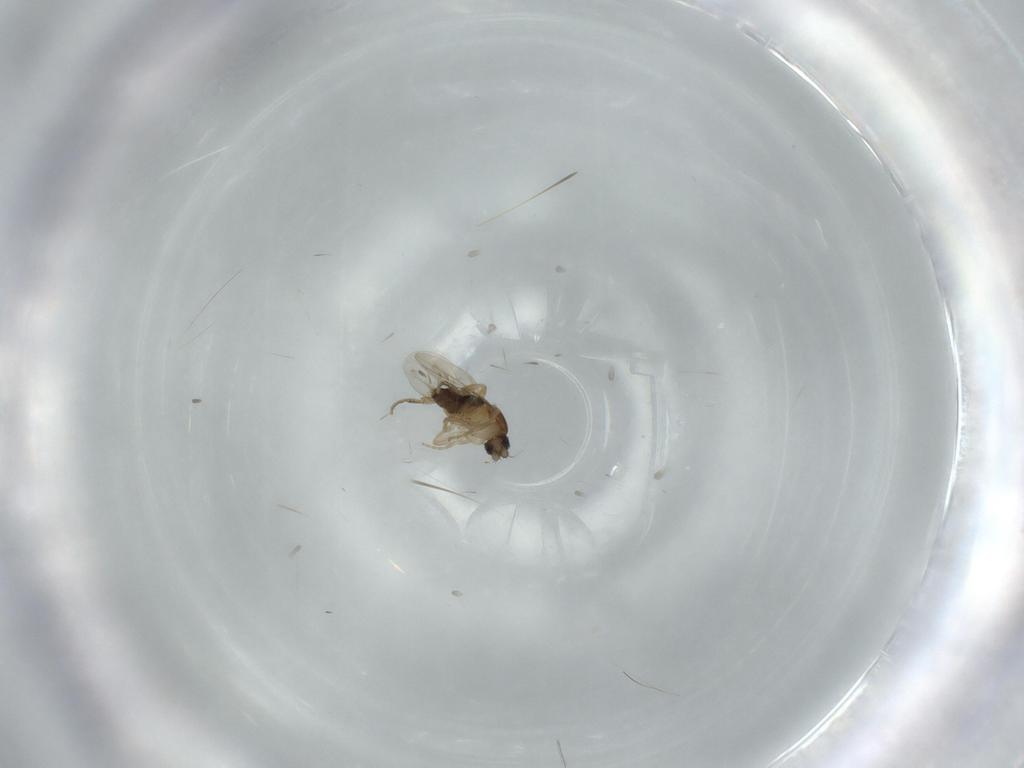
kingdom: Animalia
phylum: Arthropoda
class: Insecta
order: Diptera
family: Phoridae
